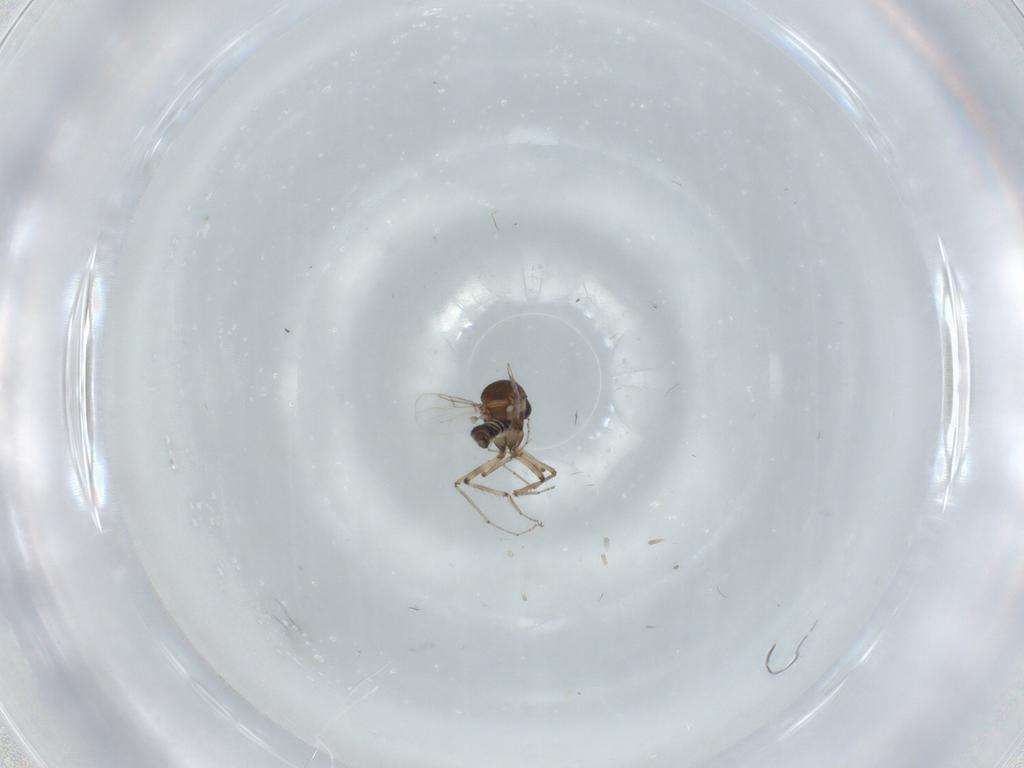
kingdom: Animalia
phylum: Arthropoda
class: Insecta
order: Diptera
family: Ceratopogonidae
